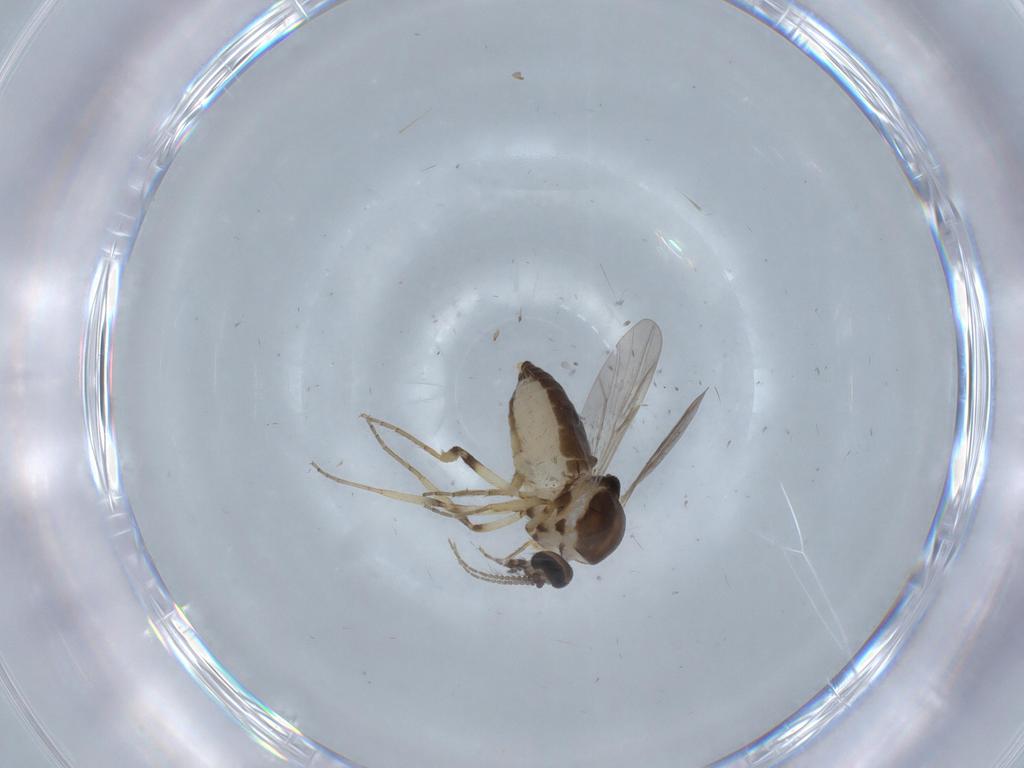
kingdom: Animalia
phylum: Arthropoda
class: Insecta
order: Diptera
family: Ceratopogonidae
